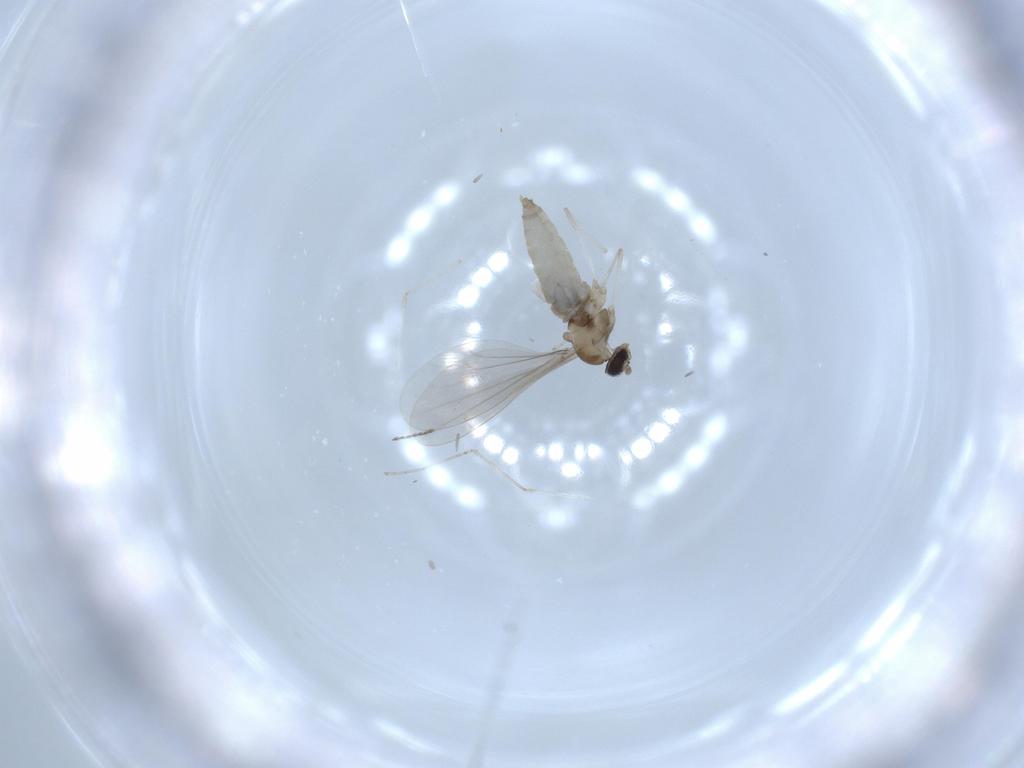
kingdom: Animalia
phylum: Arthropoda
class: Insecta
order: Diptera
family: Cecidomyiidae
